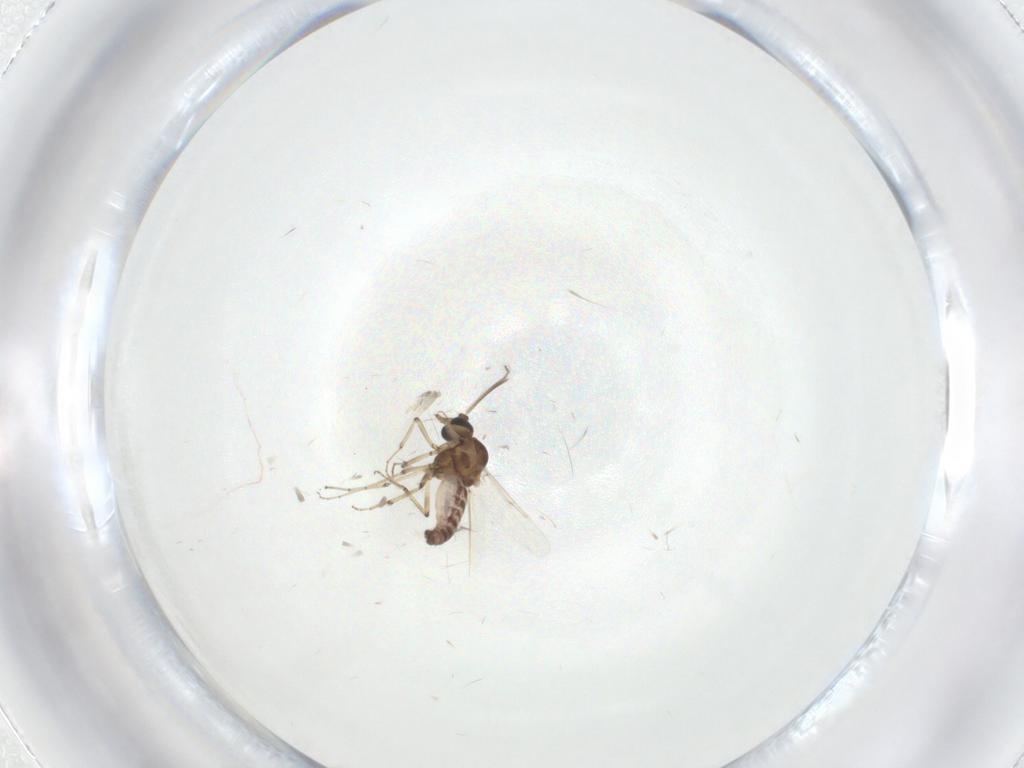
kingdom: Animalia
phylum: Arthropoda
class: Insecta
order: Diptera
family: Ceratopogonidae
